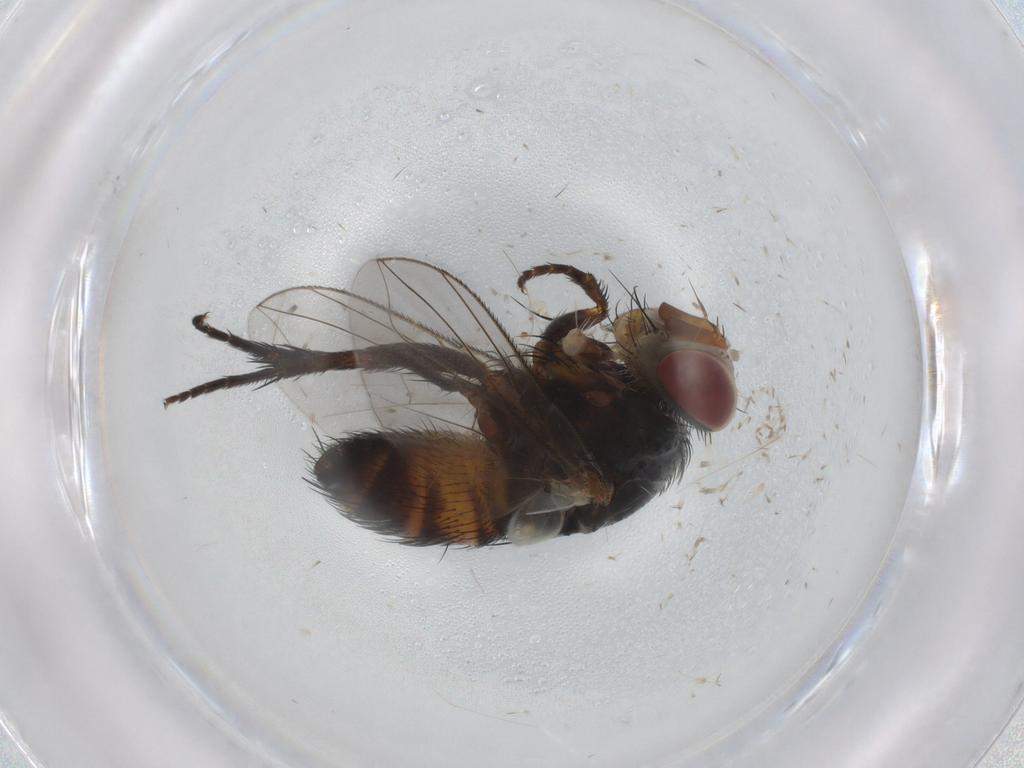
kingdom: Animalia
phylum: Arthropoda
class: Insecta
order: Diptera
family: Cecidomyiidae
